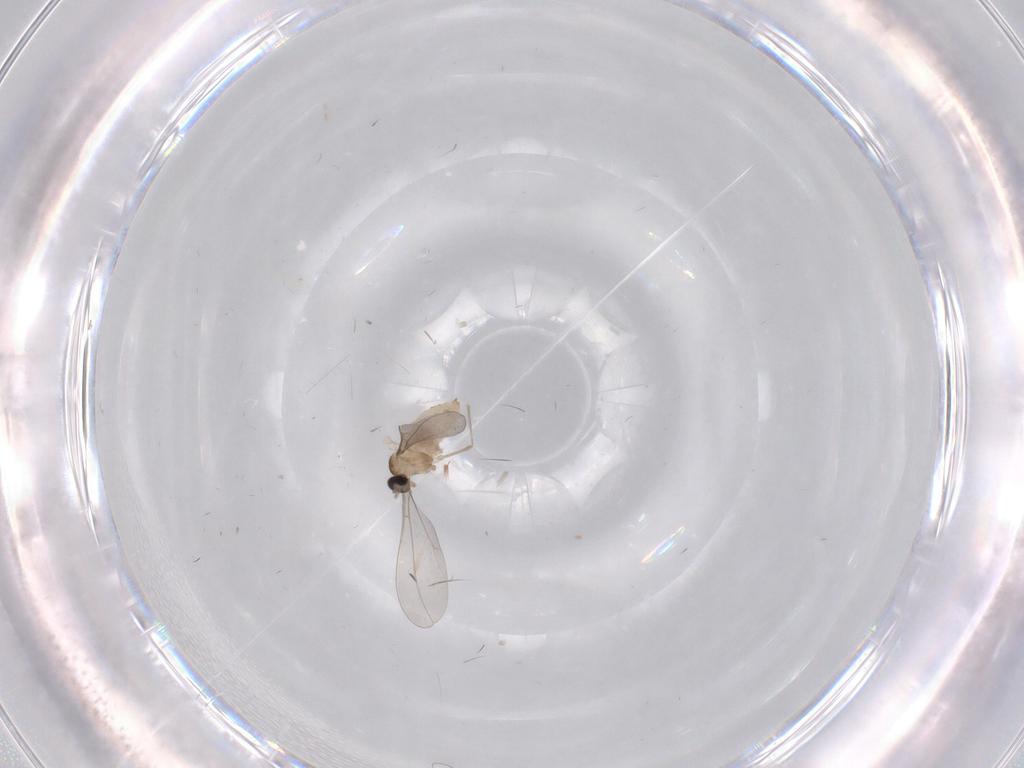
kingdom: Animalia
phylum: Arthropoda
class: Insecta
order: Diptera
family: Cecidomyiidae
